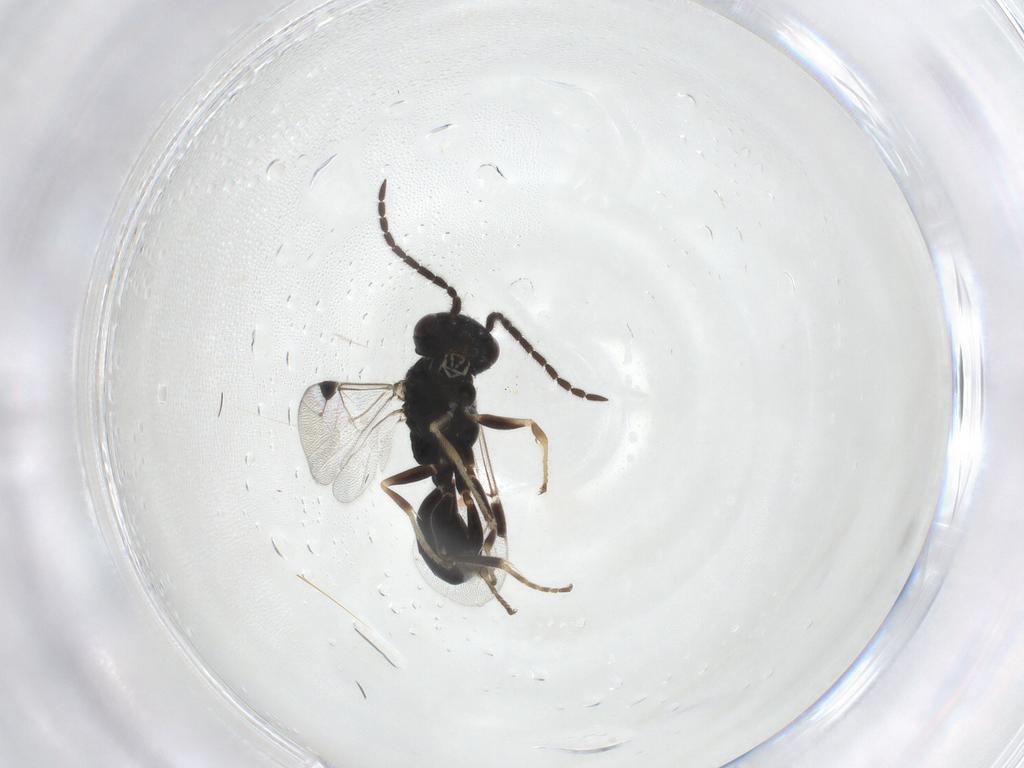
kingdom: Animalia
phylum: Arthropoda
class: Insecta
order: Hymenoptera
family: Dryinidae
